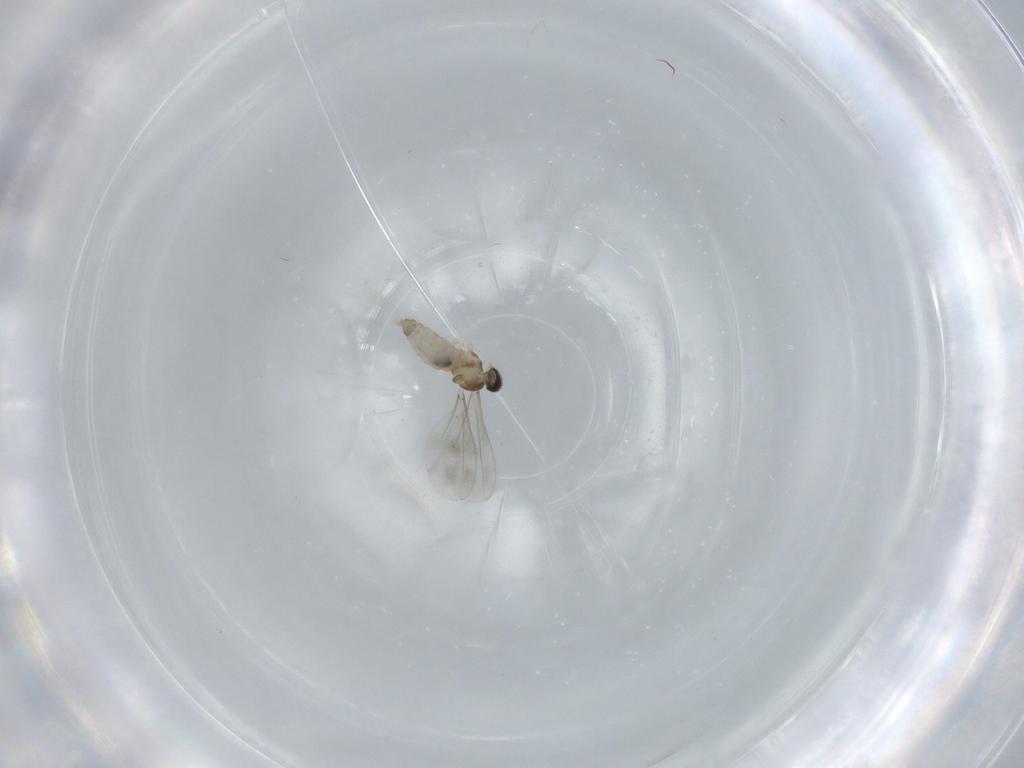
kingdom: Animalia
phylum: Arthropoda
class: Insecta
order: Diptera
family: Cecidomyiidae
